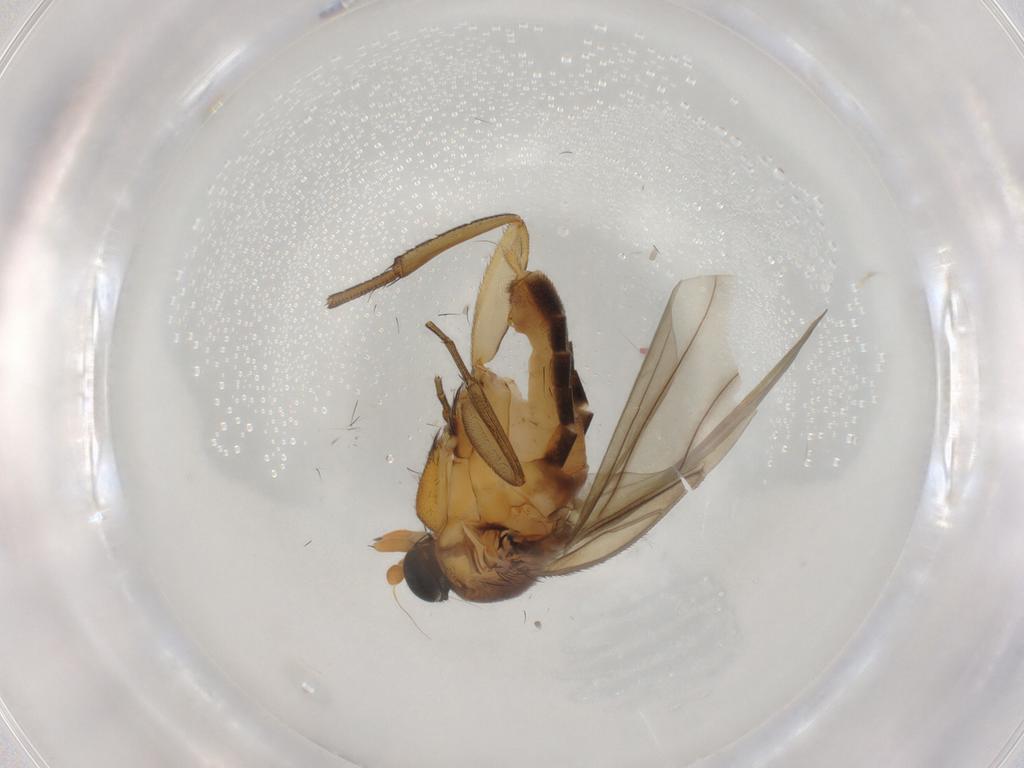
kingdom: Animalia
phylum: Arthropoda
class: Insecta
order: Diptera
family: Phoridae
